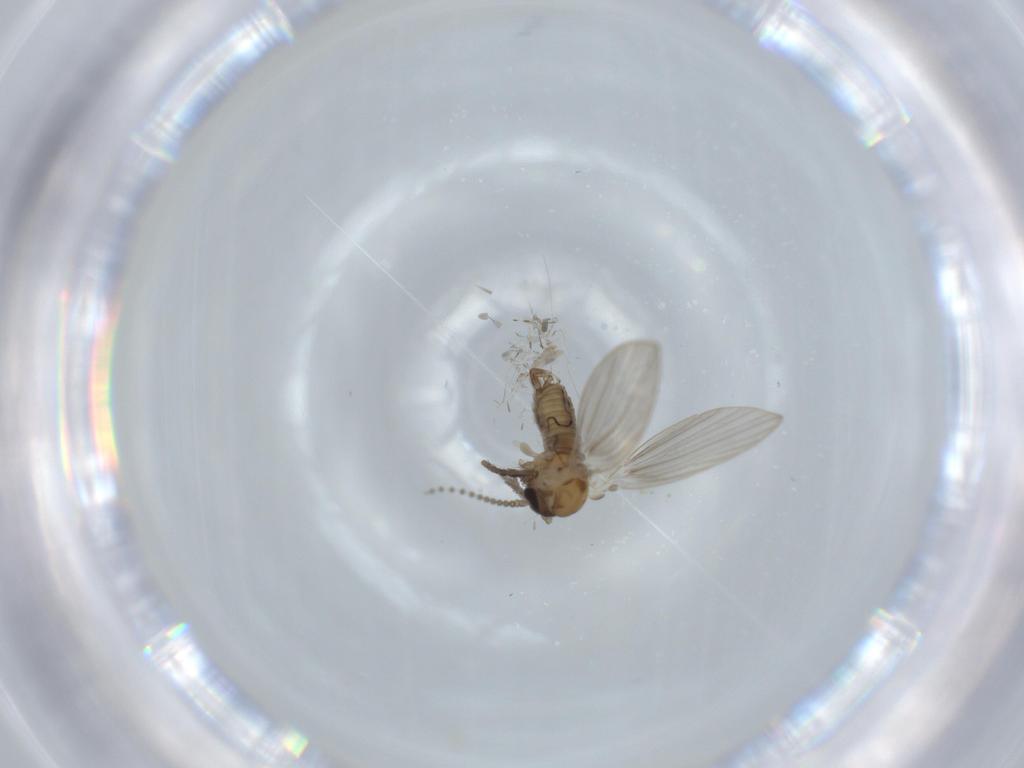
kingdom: Animalia
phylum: Arthropoda
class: Insecta
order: Diptera
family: Psychodidae
